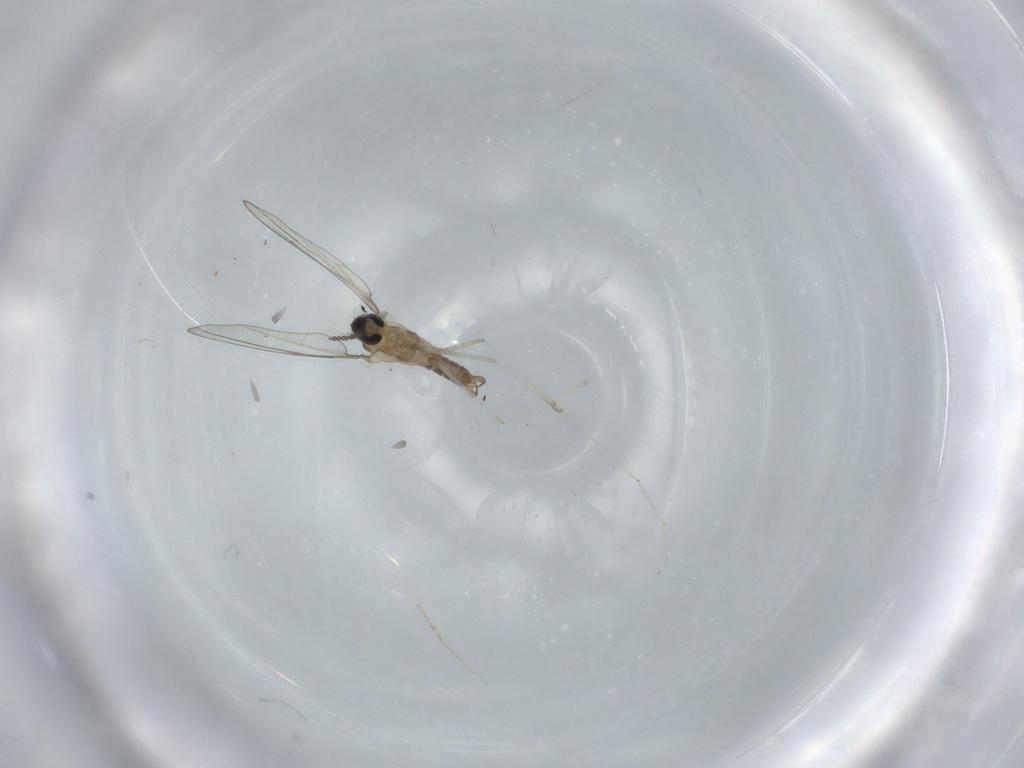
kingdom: Animalia
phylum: Arthropoda
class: Insecta
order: Diptera
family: Cecidomyiidae
